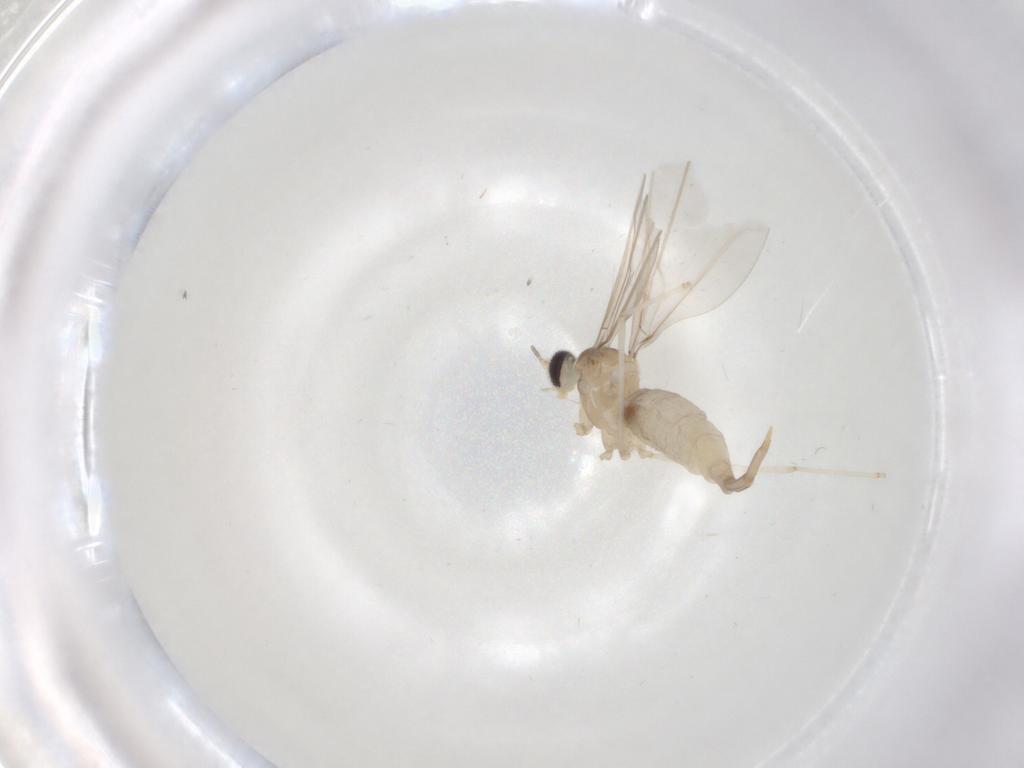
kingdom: Animalia
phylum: Arthropoda
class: Insecta
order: Diptera
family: Cecidomyiidae
